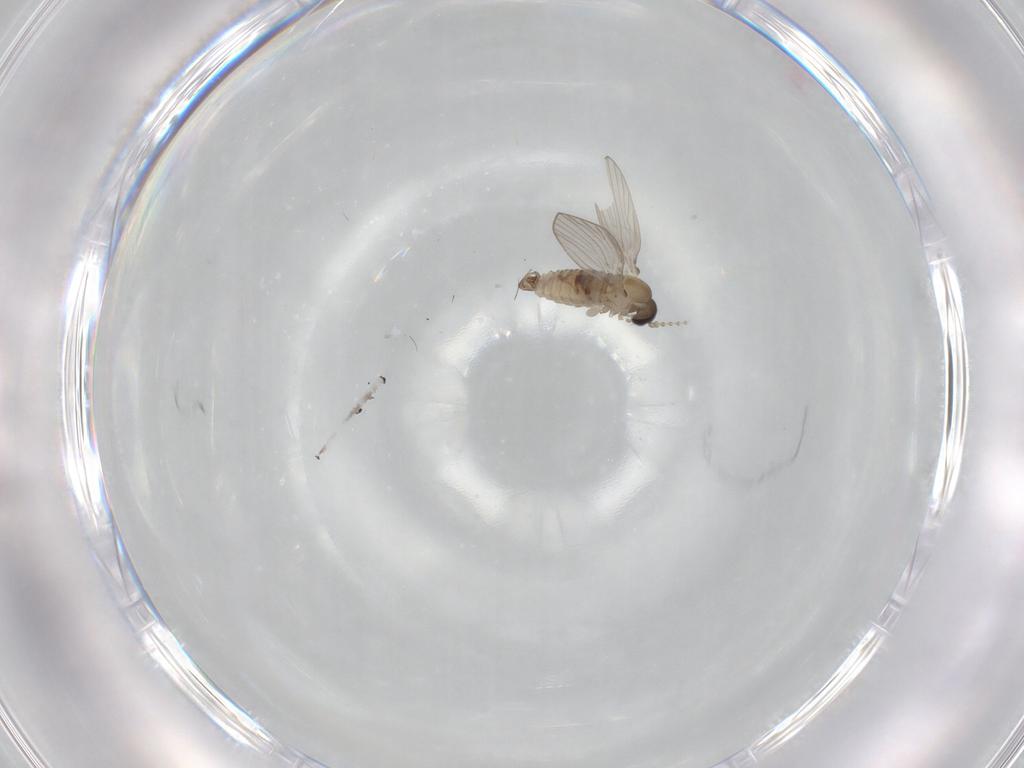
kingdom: Animalia
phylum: Arthropoda
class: Insecta
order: Diptera
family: Psychodidae
